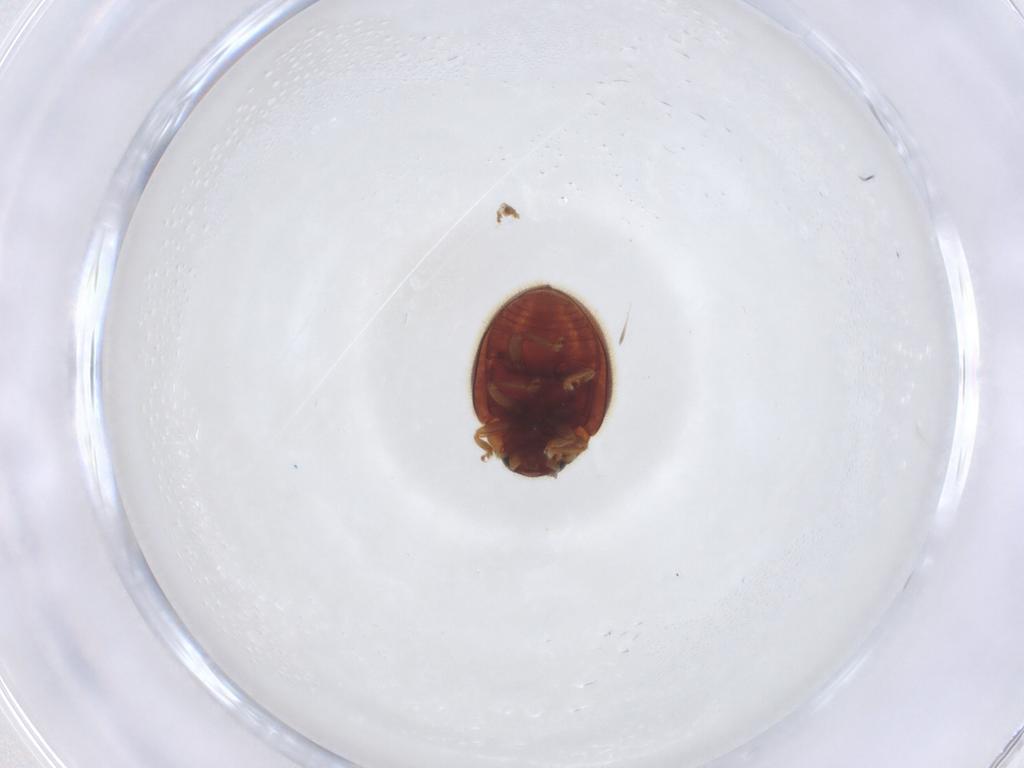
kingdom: Animalia
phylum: Arthropoda
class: Insecta
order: Coleoptera
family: Coccinellidae
